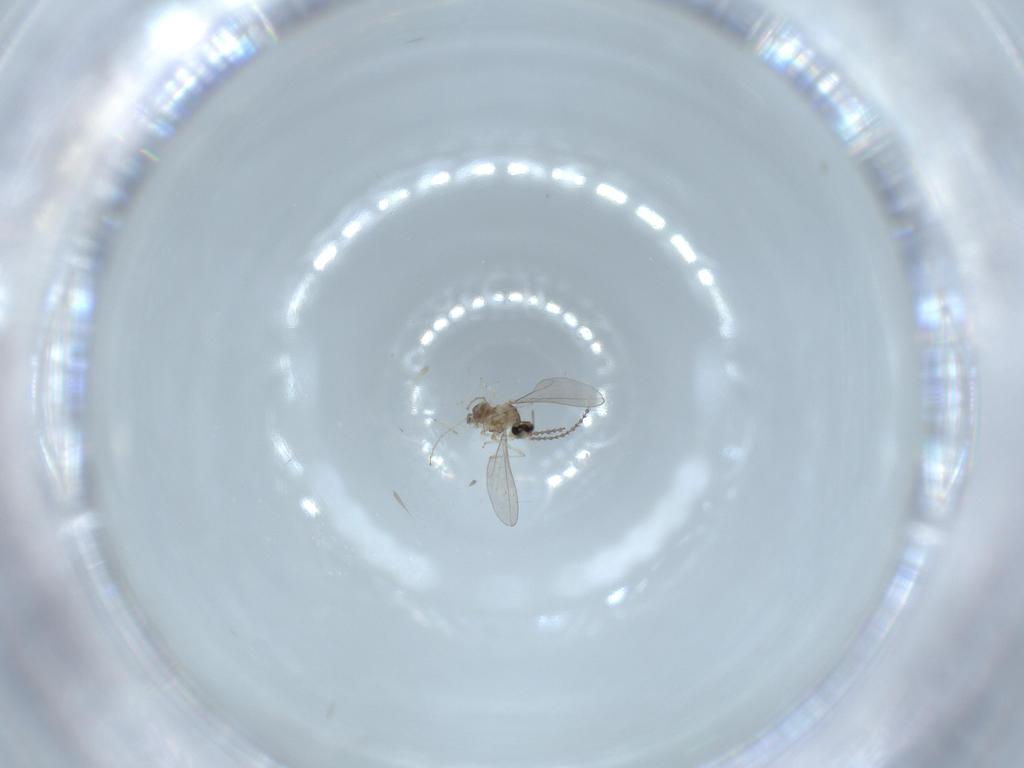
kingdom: Animalia
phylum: Arthropoda
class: Insecta
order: Diptera
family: Cecidomyiidae
